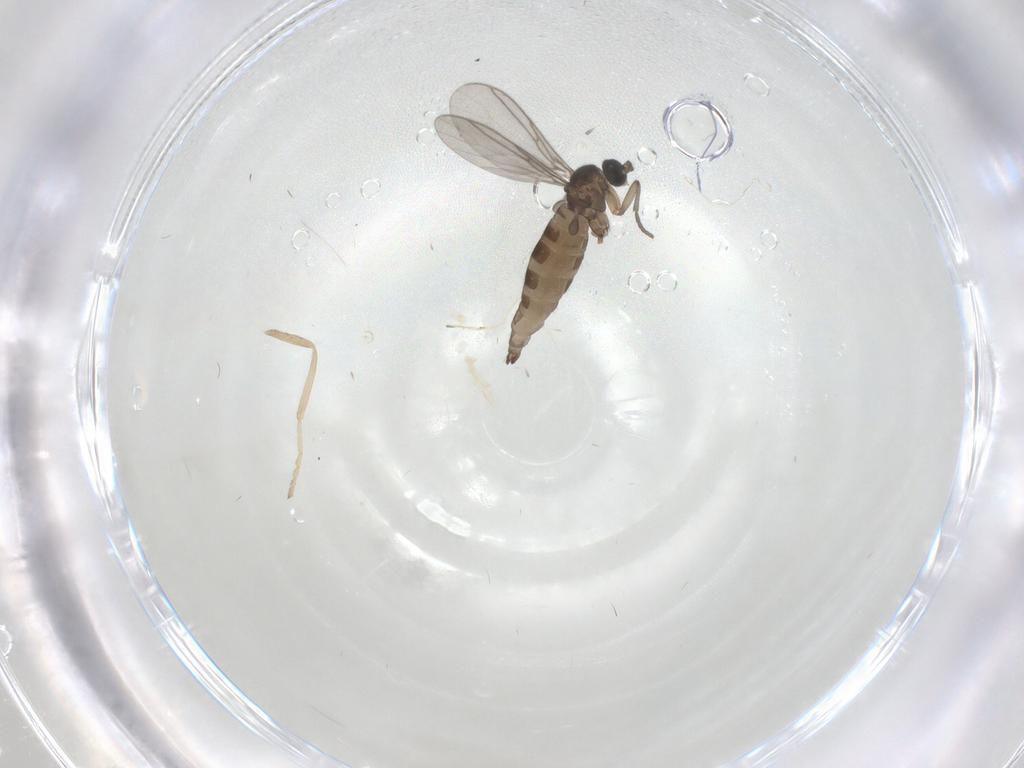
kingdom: Animalia
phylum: Arthropoda
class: Insecta
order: Diptera
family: Cecidomyiidae
